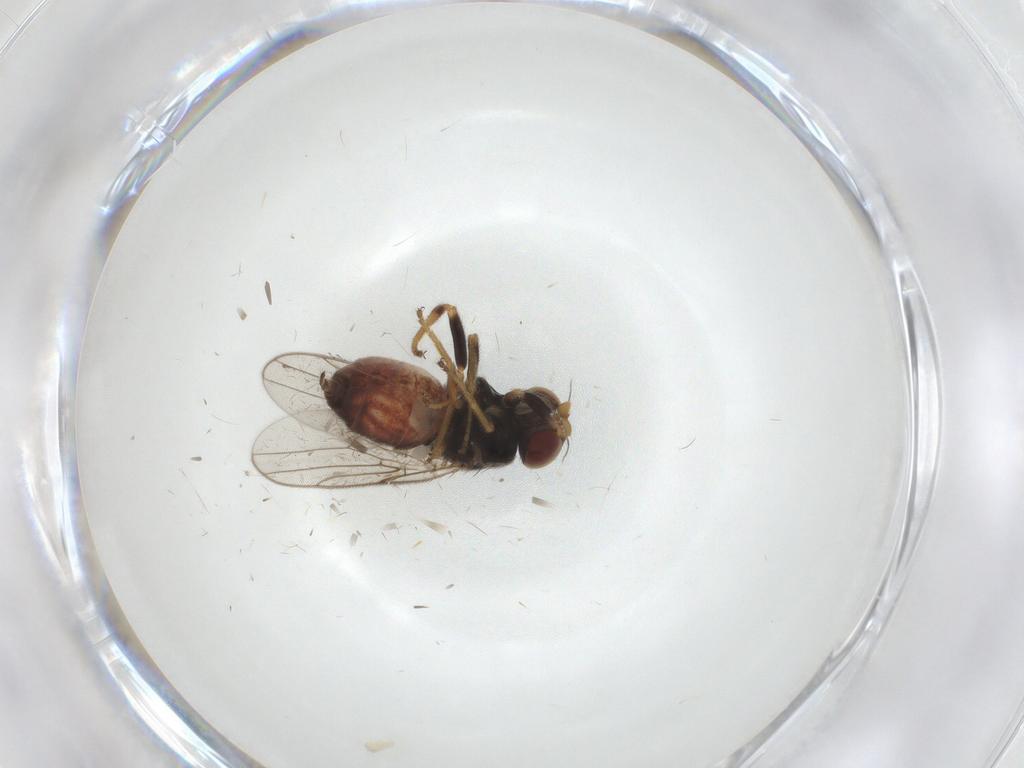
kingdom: Animalia
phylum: Arthropoda
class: Insecta
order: Diptera
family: Chloropidae
